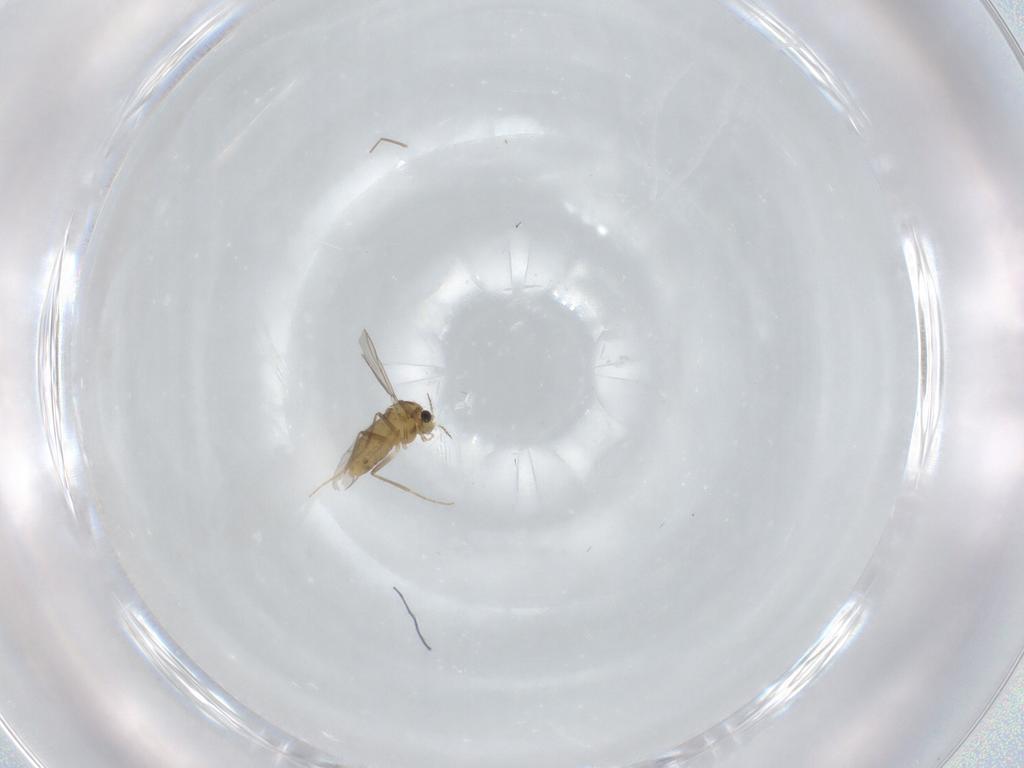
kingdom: Animalia
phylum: Arthropoda
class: Insecta
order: Diptera
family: Chironomidae
